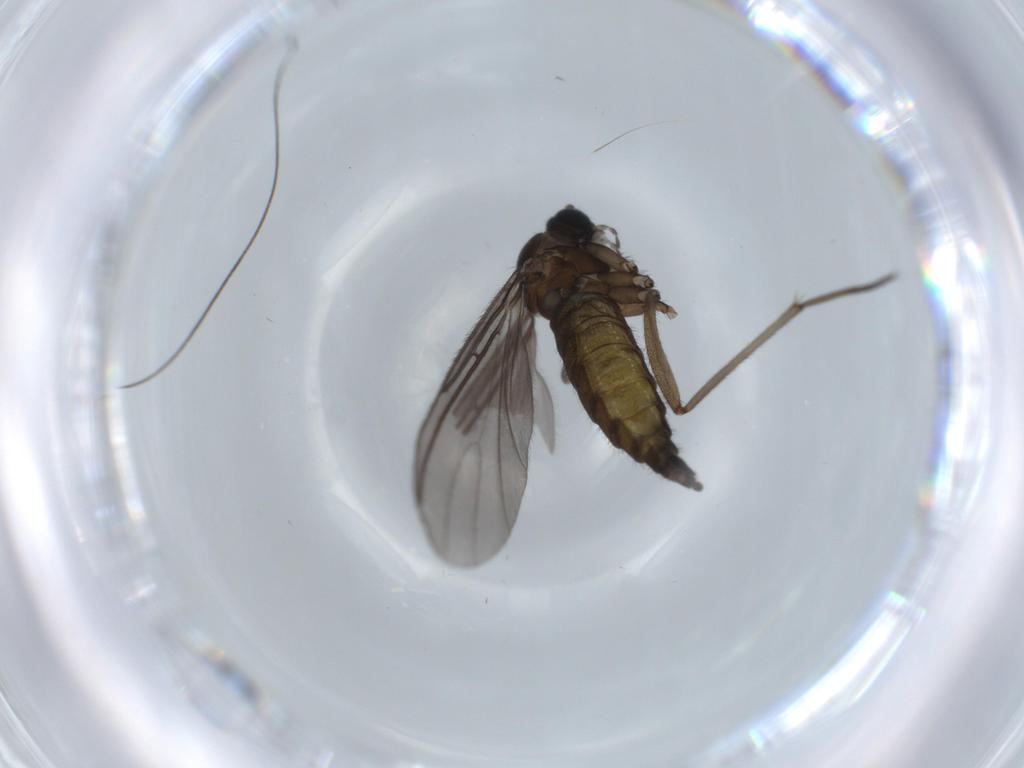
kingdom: Animalia
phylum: Arthropoda
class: Insecta
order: Diptera
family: Sciaridae
